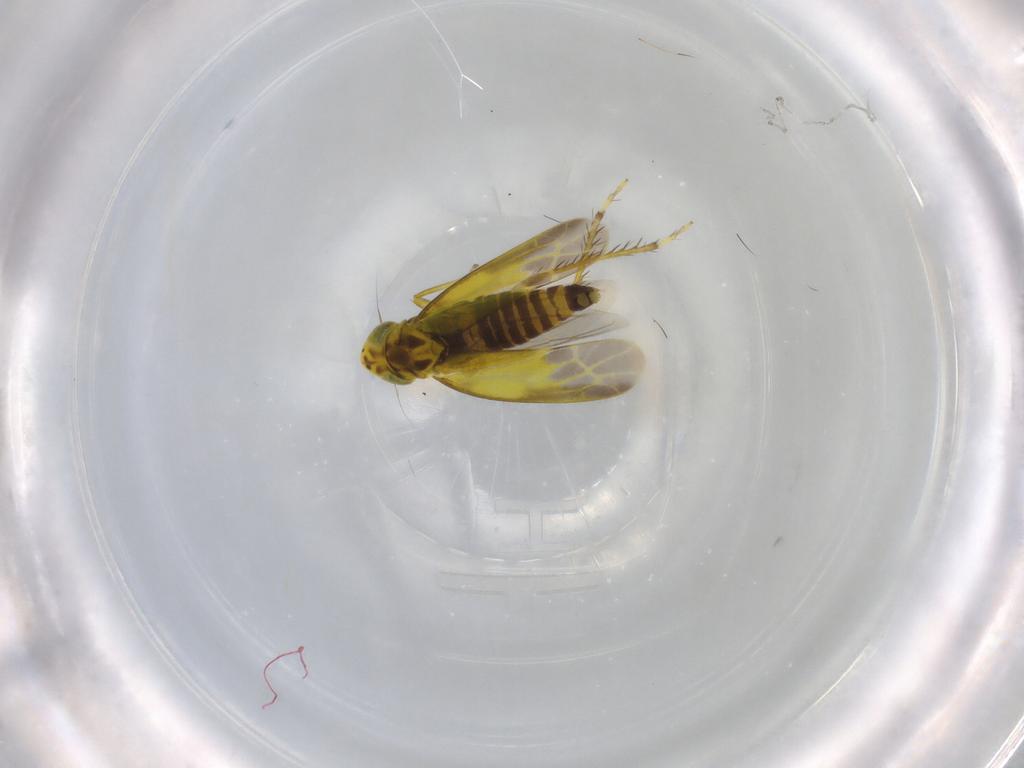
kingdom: Animalia
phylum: Arthropoda
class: Insecta
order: Hemiptera
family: Cicadellidae
